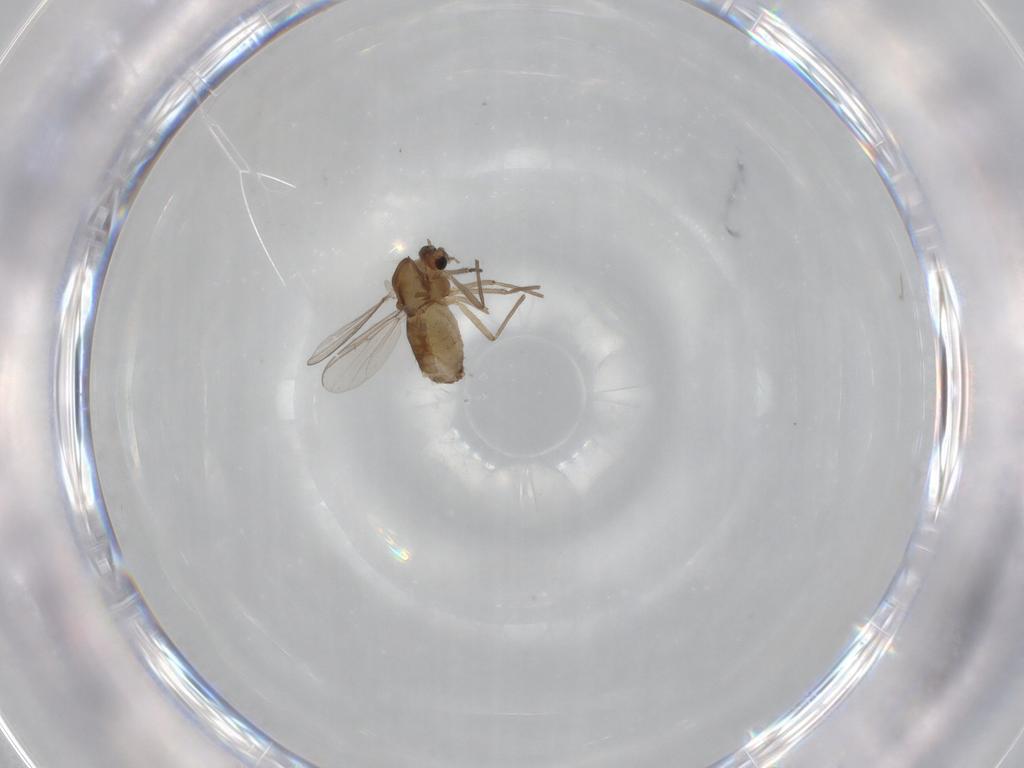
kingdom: Animalia
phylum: Arthropoda
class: Insecta
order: Diptera
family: Chironomidae
